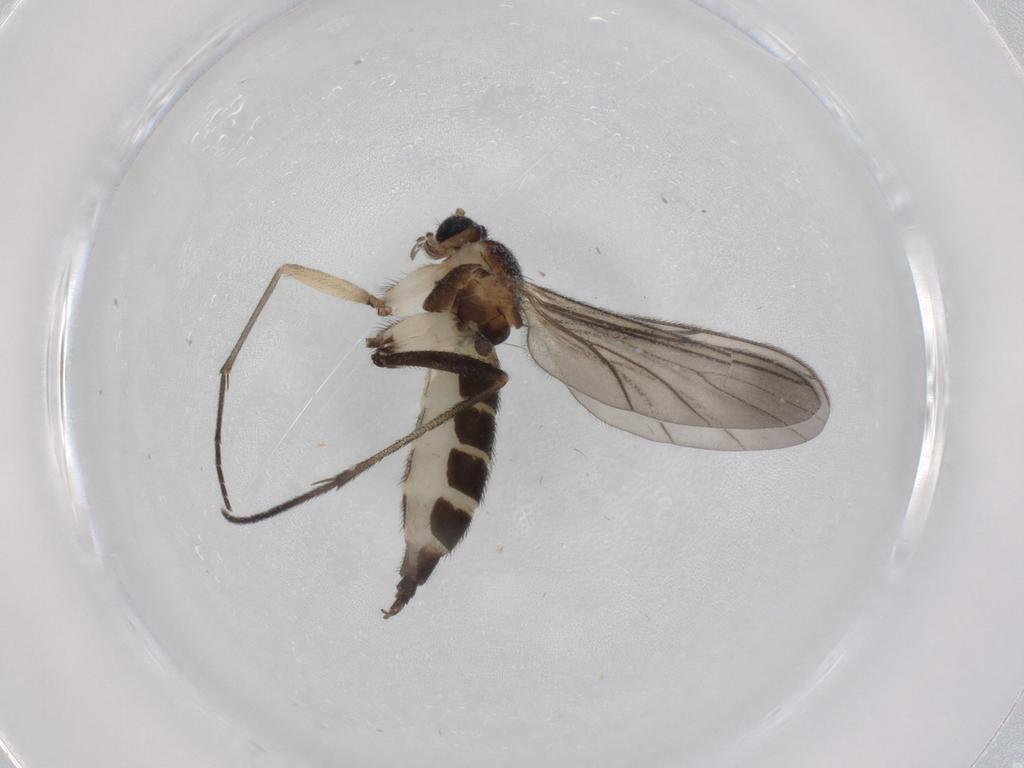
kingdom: Animalia
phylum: Arthropoda
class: Insecta
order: Diptera
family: Sciaridae
